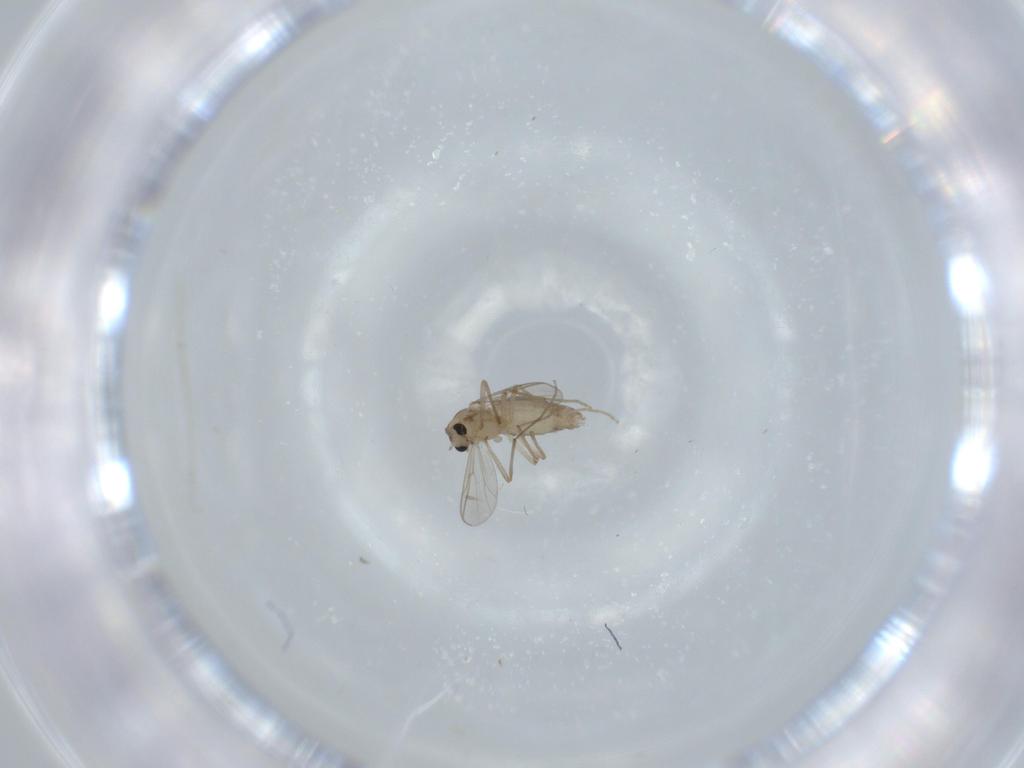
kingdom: Animalia
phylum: Arthropoda
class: Insecta
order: Diptera
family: Chironomidae
